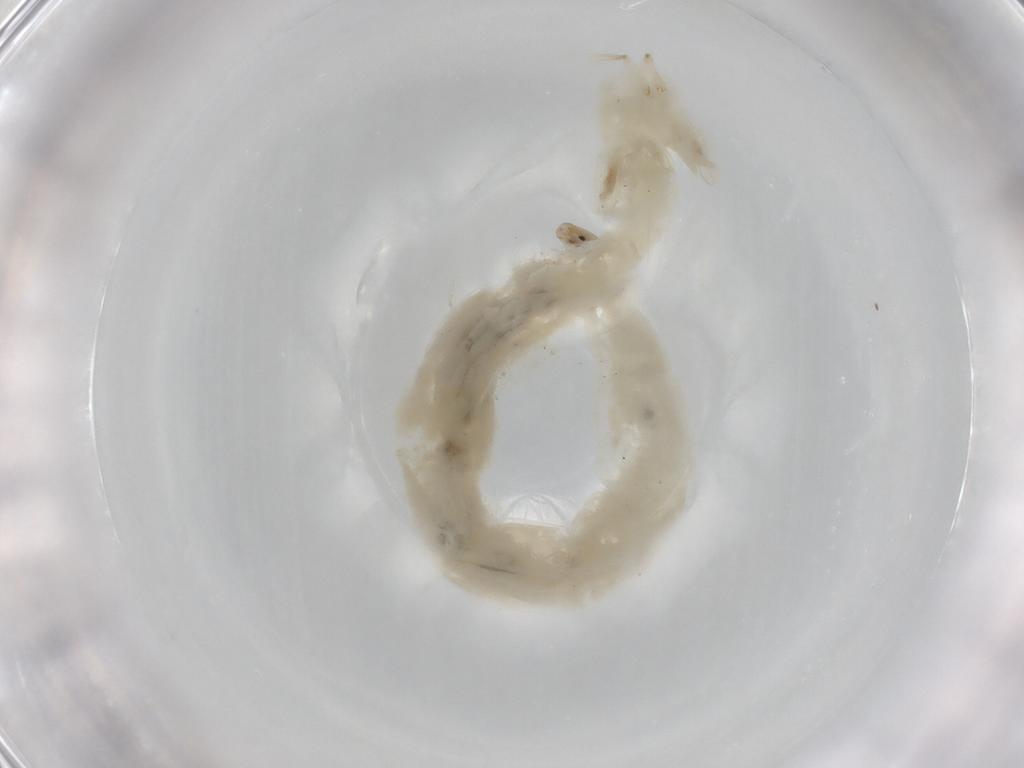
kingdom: Animalia
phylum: Arthropoda
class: Insecta
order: Diptera
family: Chironomidae
